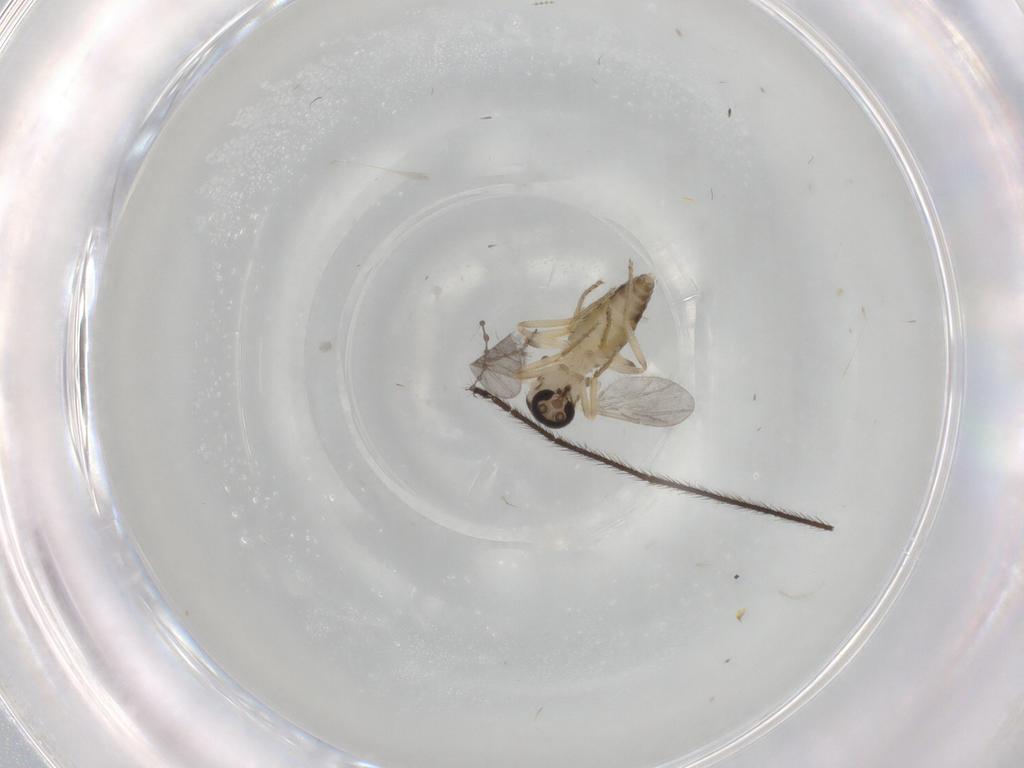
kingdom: Animalia
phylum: Arthropoda
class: Insecta
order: Diptera
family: Ceratopogonidae
